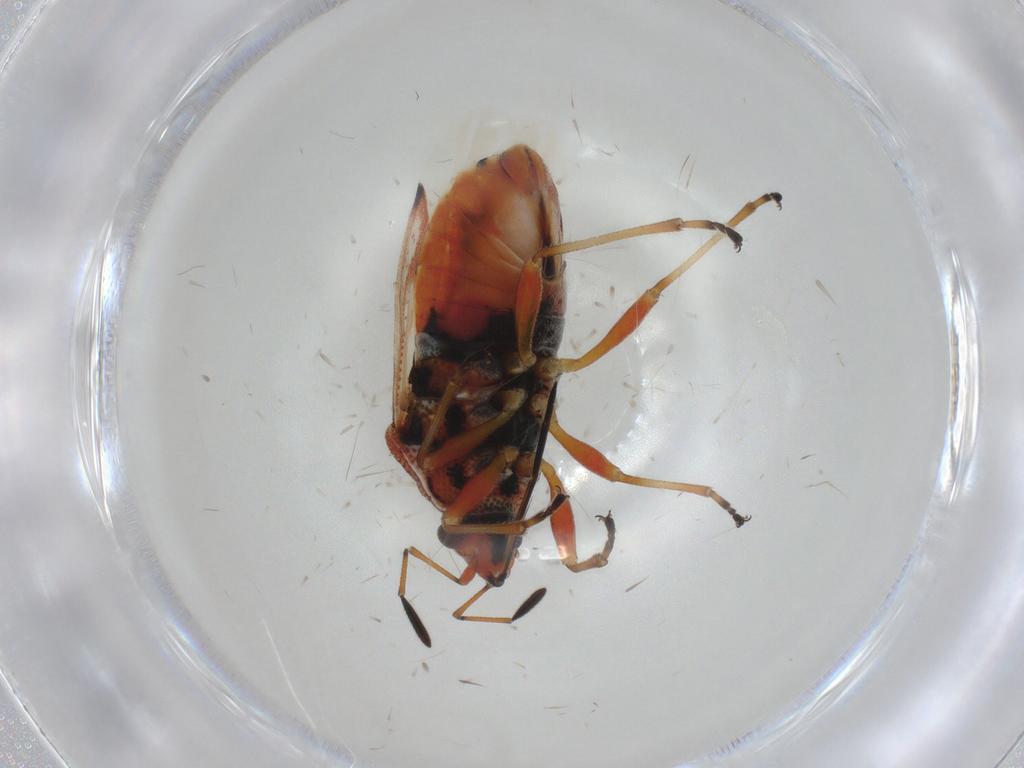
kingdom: Animalia
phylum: Arthropoda
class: Insecta
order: Hemiptera
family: Lygaeidae
